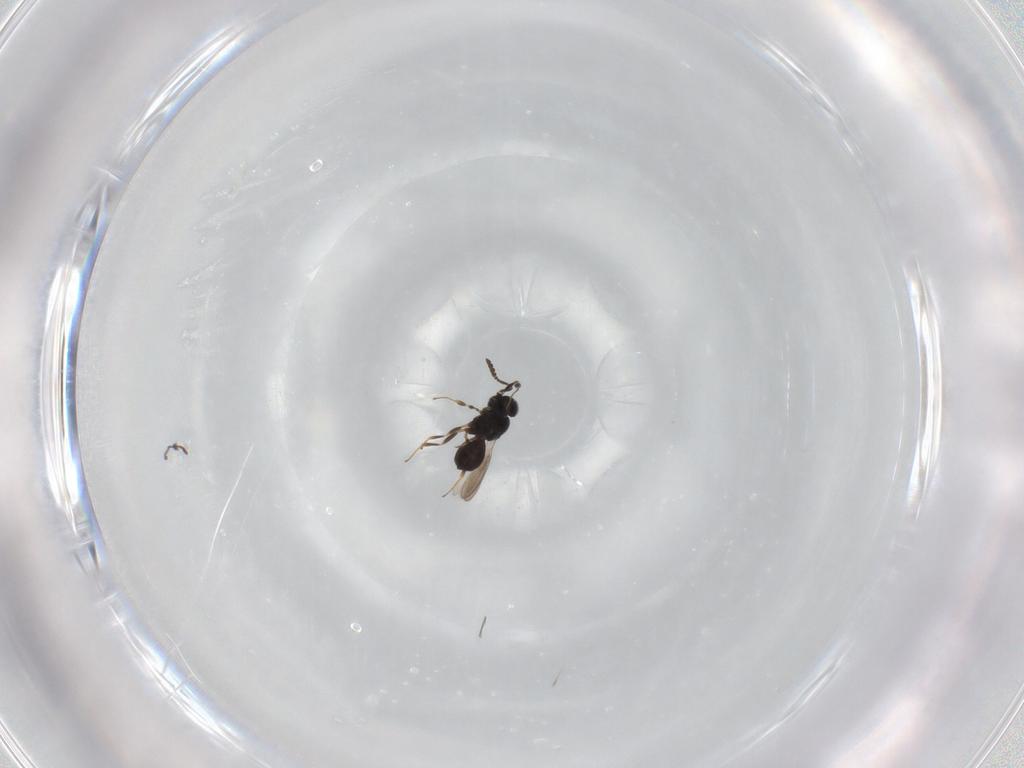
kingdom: Animalia
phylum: Arthropoda
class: Insecta
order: Hymenoptera
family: Scelionidae
